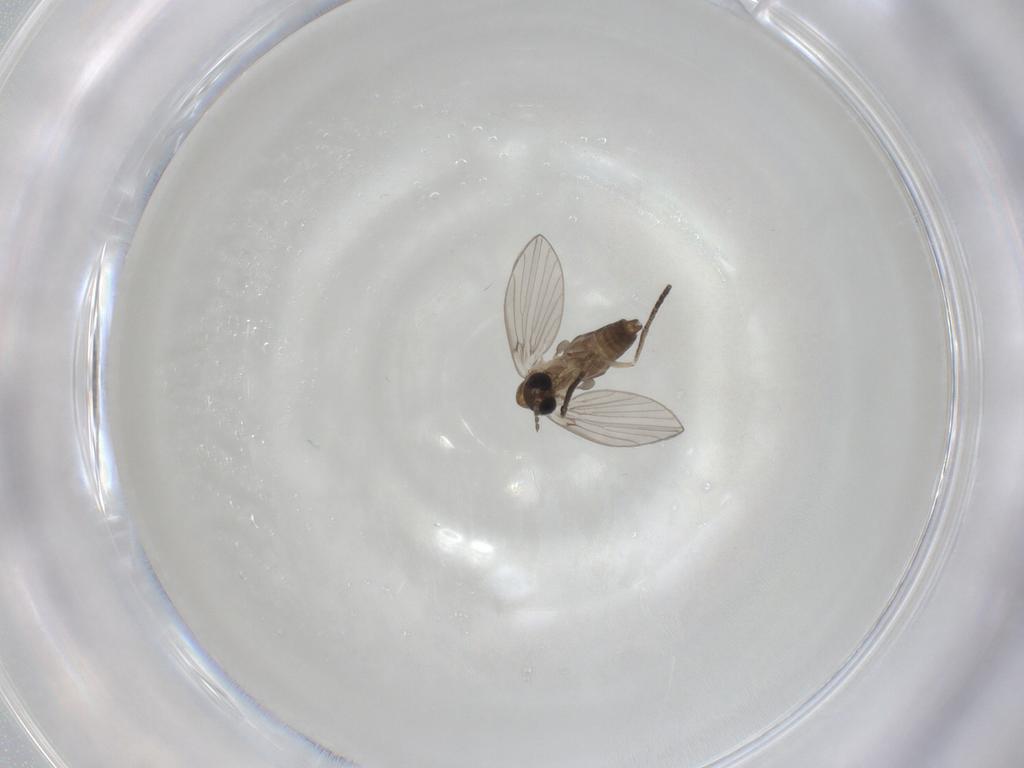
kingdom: Animalia
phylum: Arthropoda
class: Insecta
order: Diptera
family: Psychodidae
